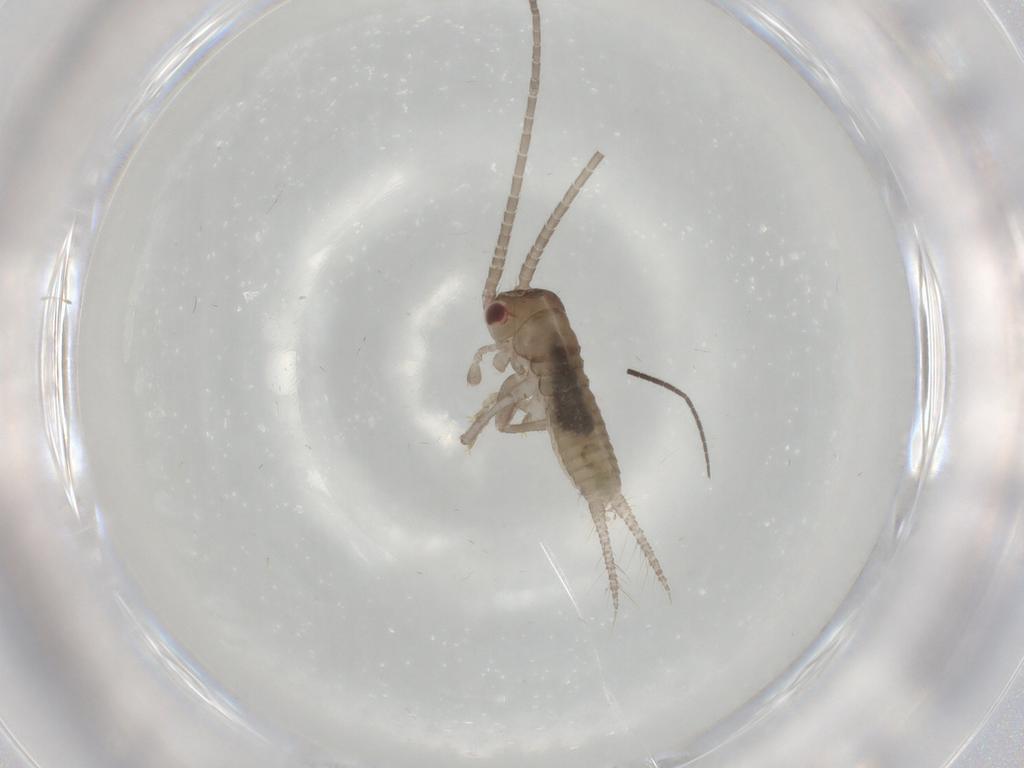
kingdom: Animalia
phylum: Arthropoda
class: Insecta
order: Orthoptera
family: Gryllidae
